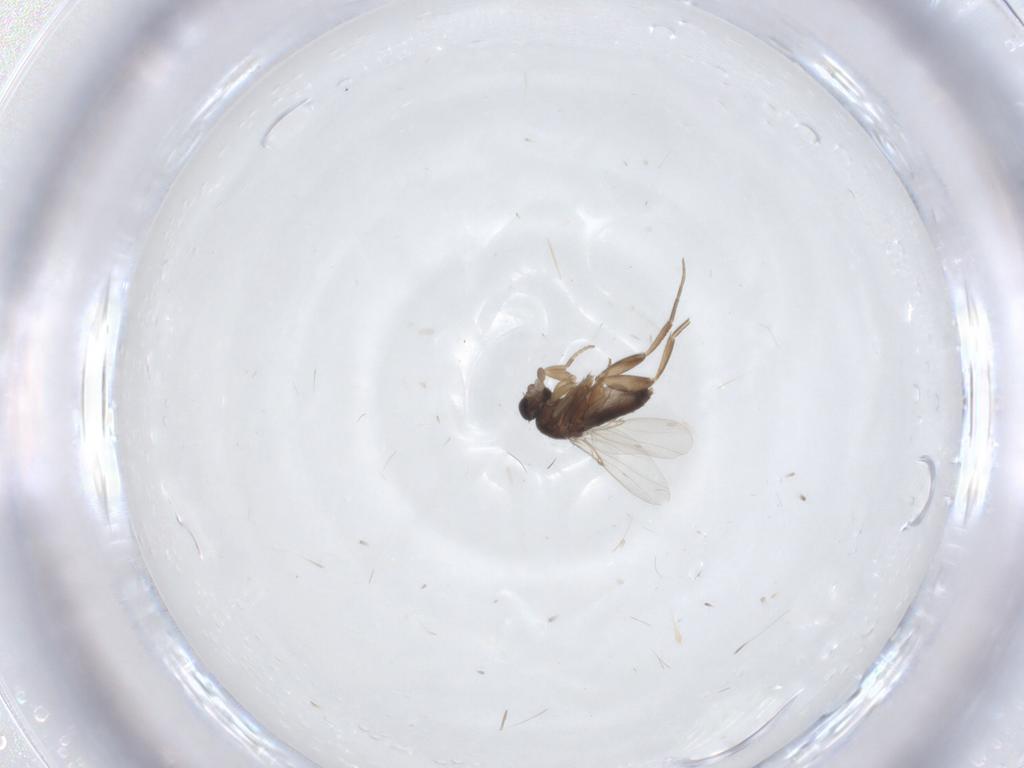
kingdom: Animalia
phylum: Arthropoda
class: Insecta
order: Diptera
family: Phoridae
